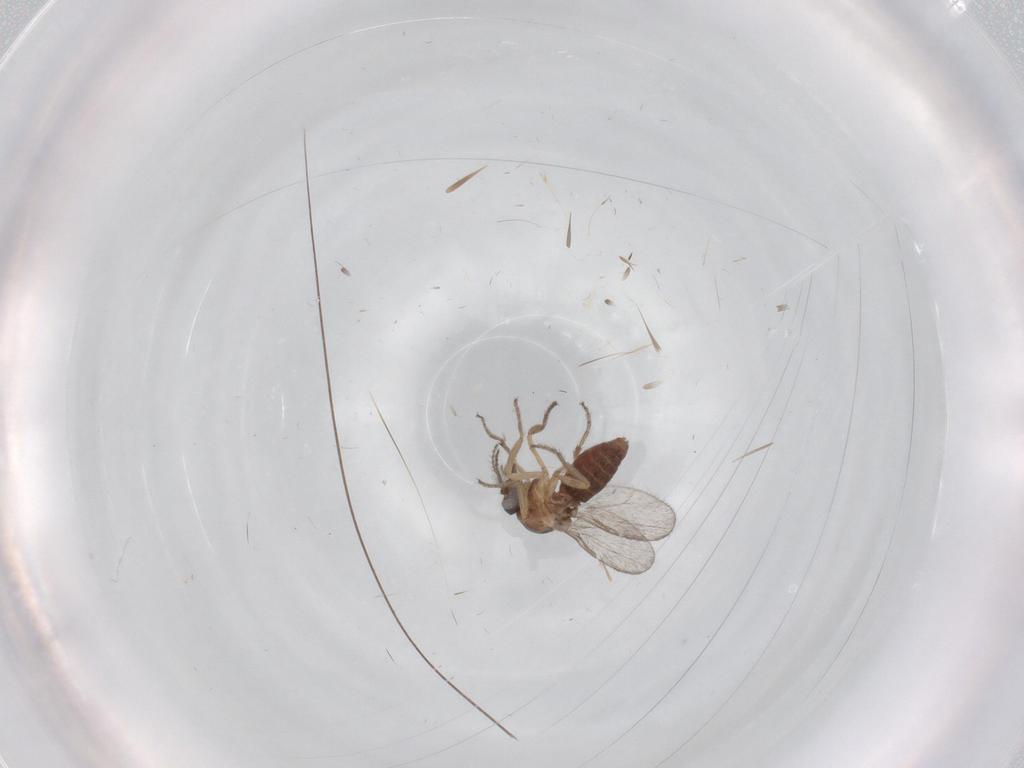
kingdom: Animalia
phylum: Arthropoda
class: Insecta
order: Diptera
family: Ceratopogonidae
